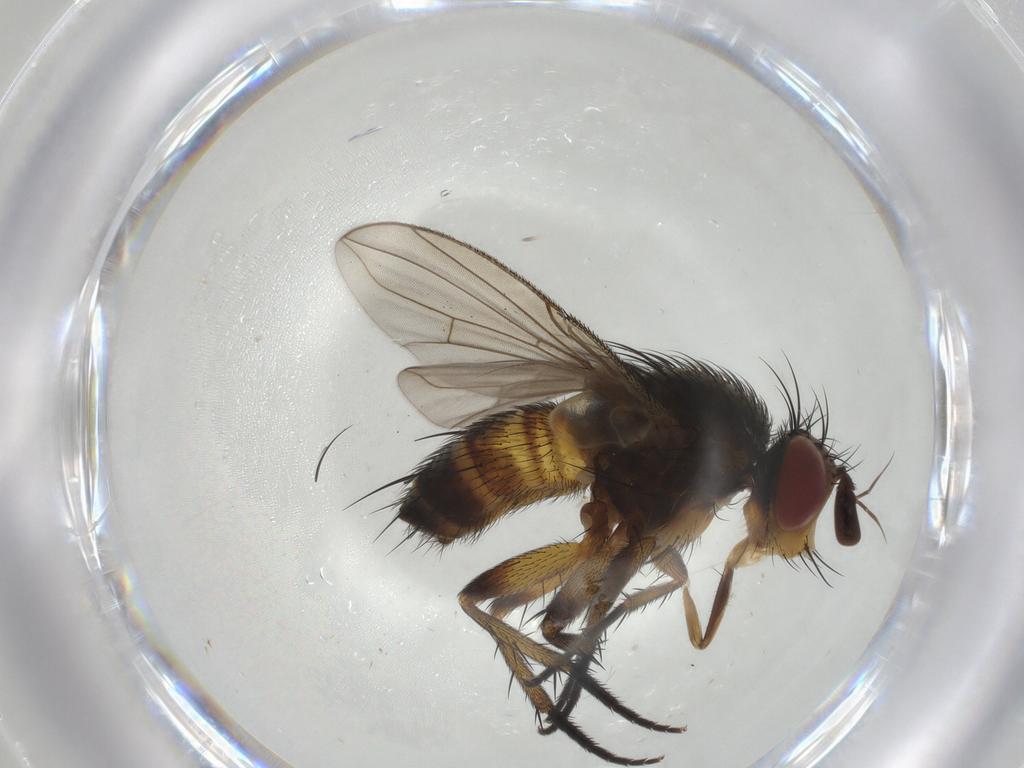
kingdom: Animalia
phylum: Arthropoda
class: Insecta
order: Diptera
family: Tachinidae
